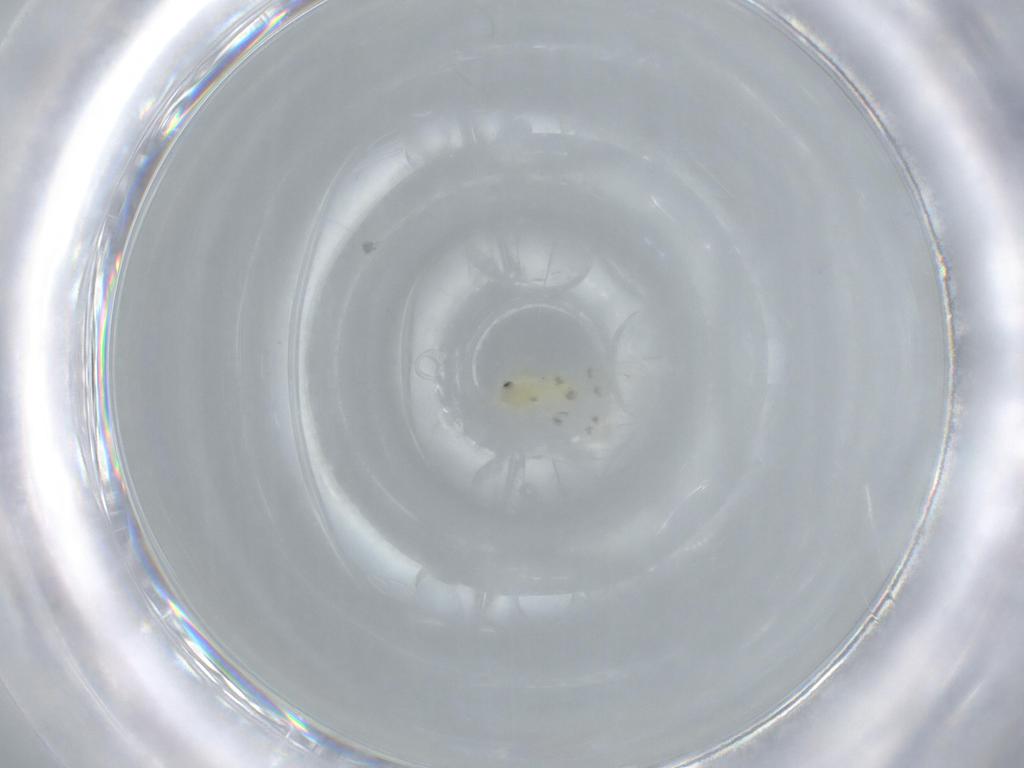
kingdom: Animalia
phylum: Arthropoda
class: Insecta
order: Hemiptera
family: Aleyrodidae
